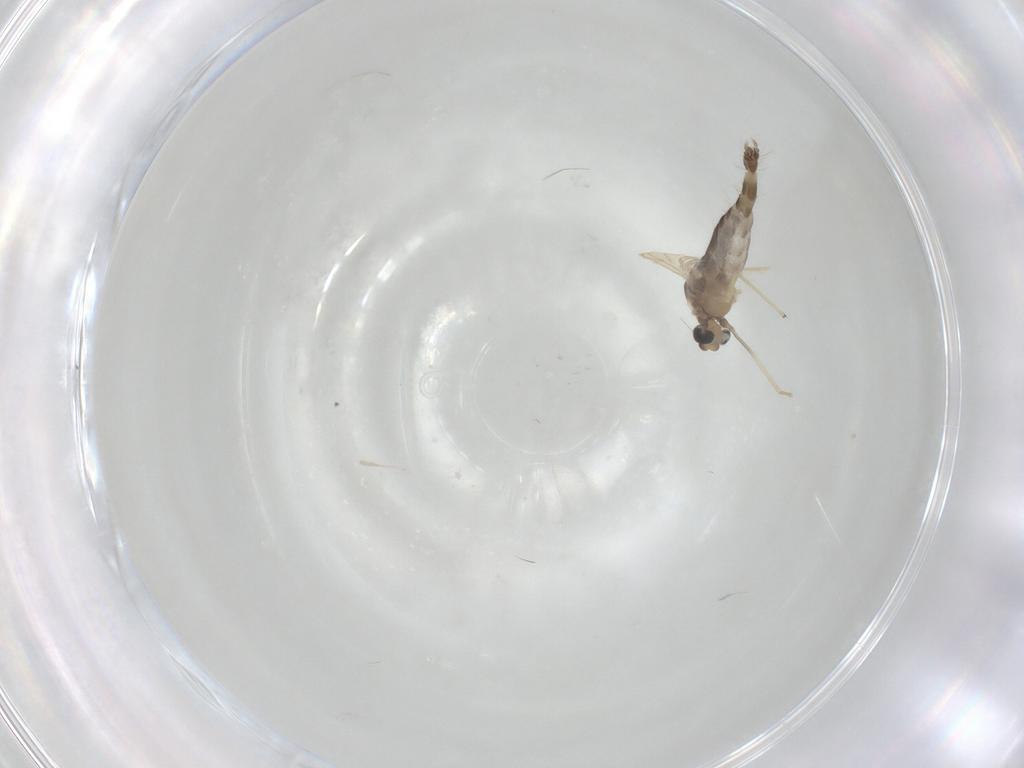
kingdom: Animalia
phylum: Arthropoda
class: Insecta
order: Diptera
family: Chironomidae
